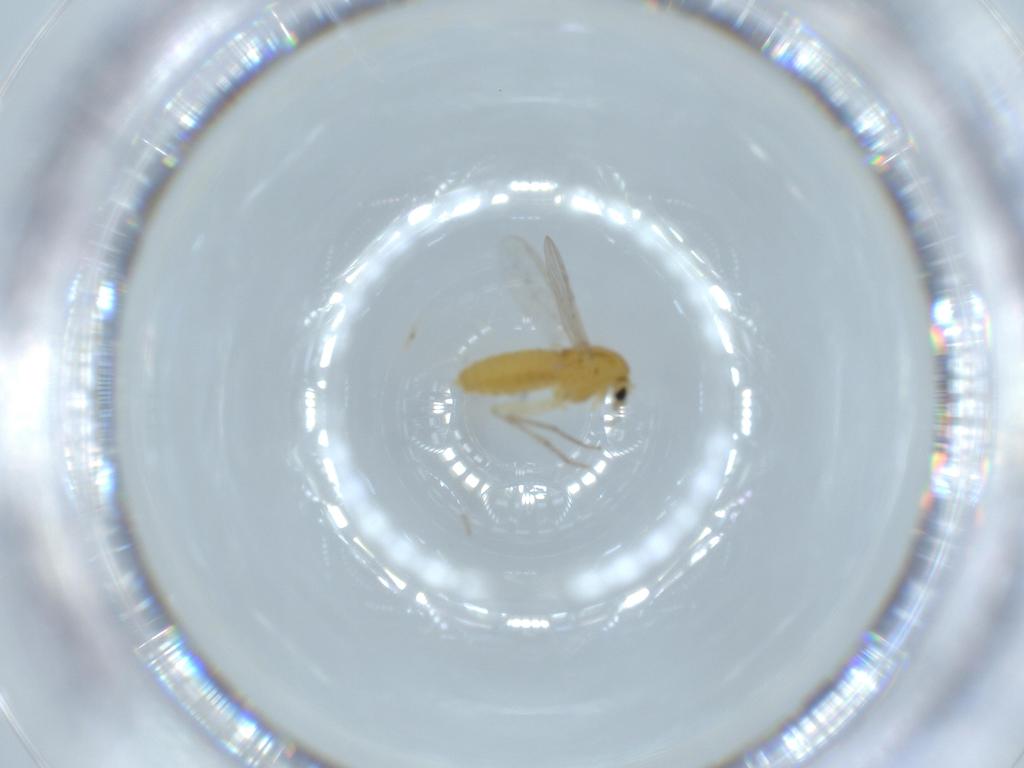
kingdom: Animalia
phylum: Arthropoda
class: Insecta
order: Diptera
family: Chironomidae
